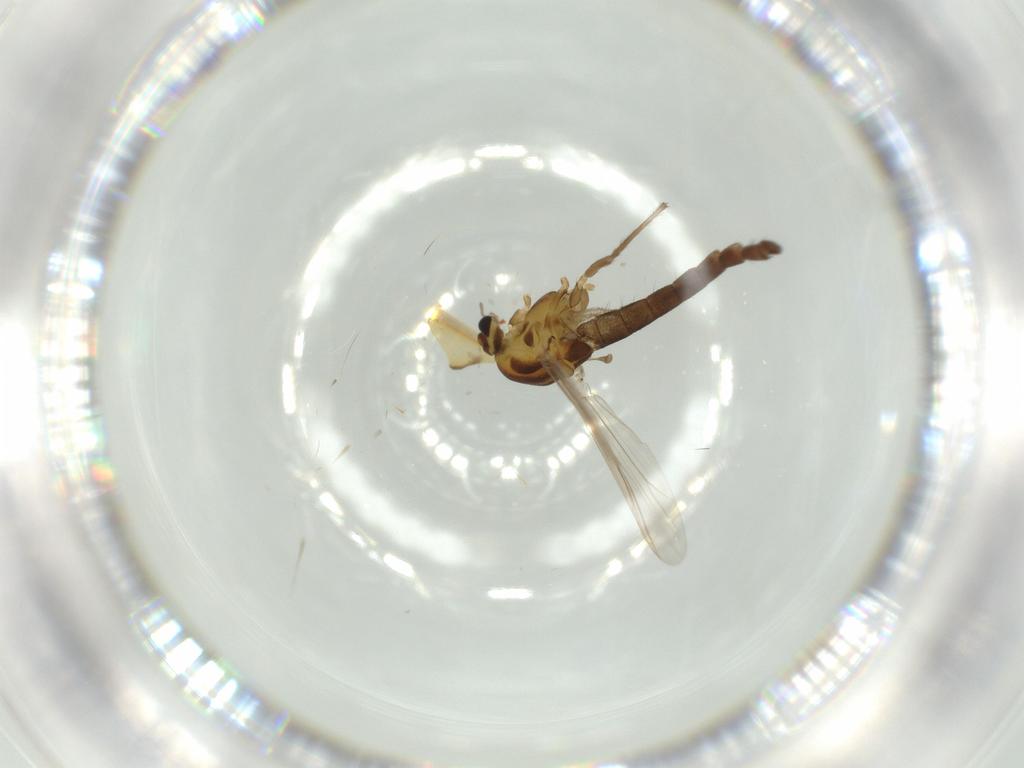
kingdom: Animalia
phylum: Arthropoda
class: Insecta
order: Diptera
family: Chironomidae
